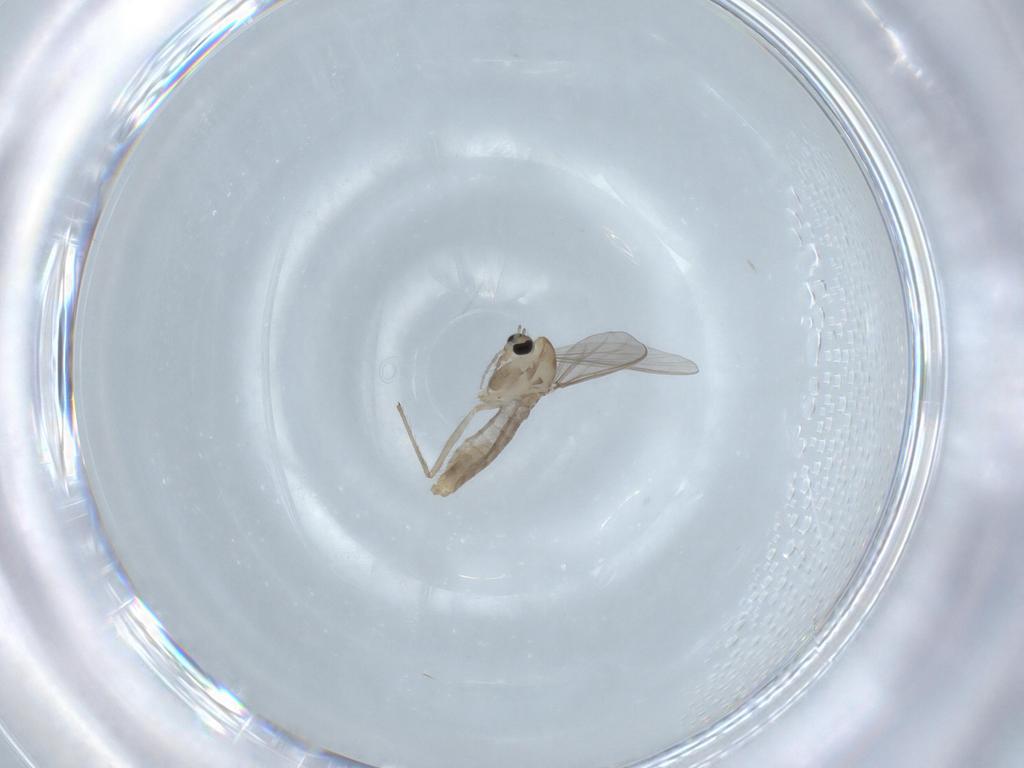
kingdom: Animalia
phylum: Arthropoda
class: Insecta
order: Diptera
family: Chironomidae
